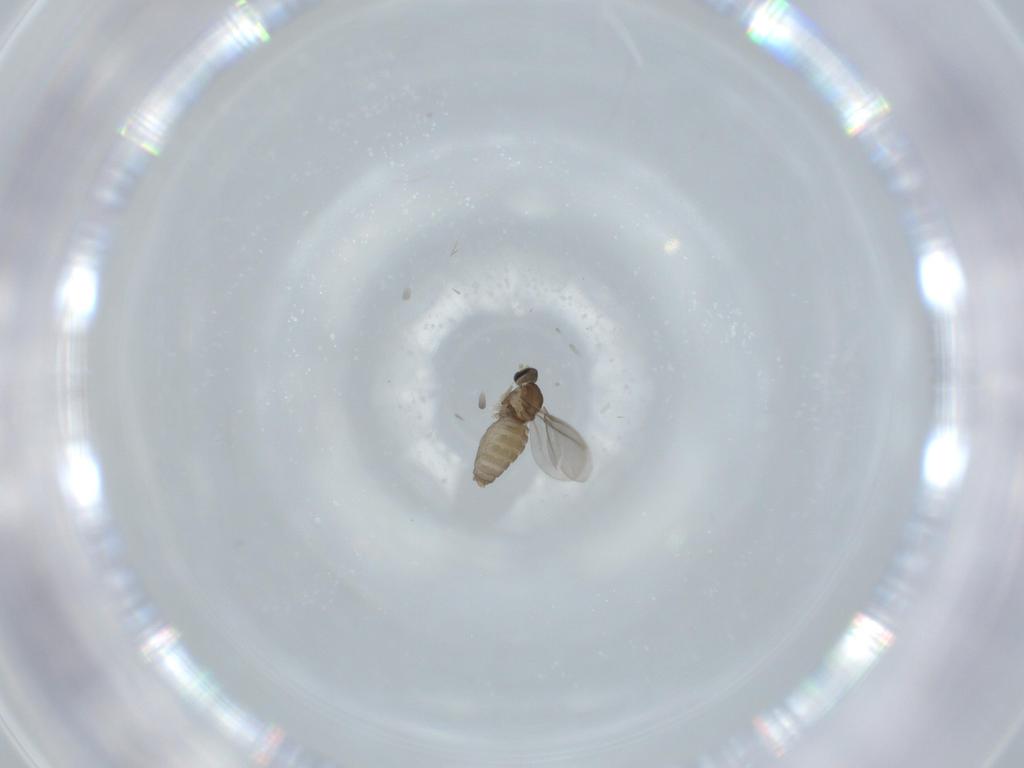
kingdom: Animalia
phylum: Arthropoda
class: Insecta
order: Diptera
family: Cecidomyiidae
